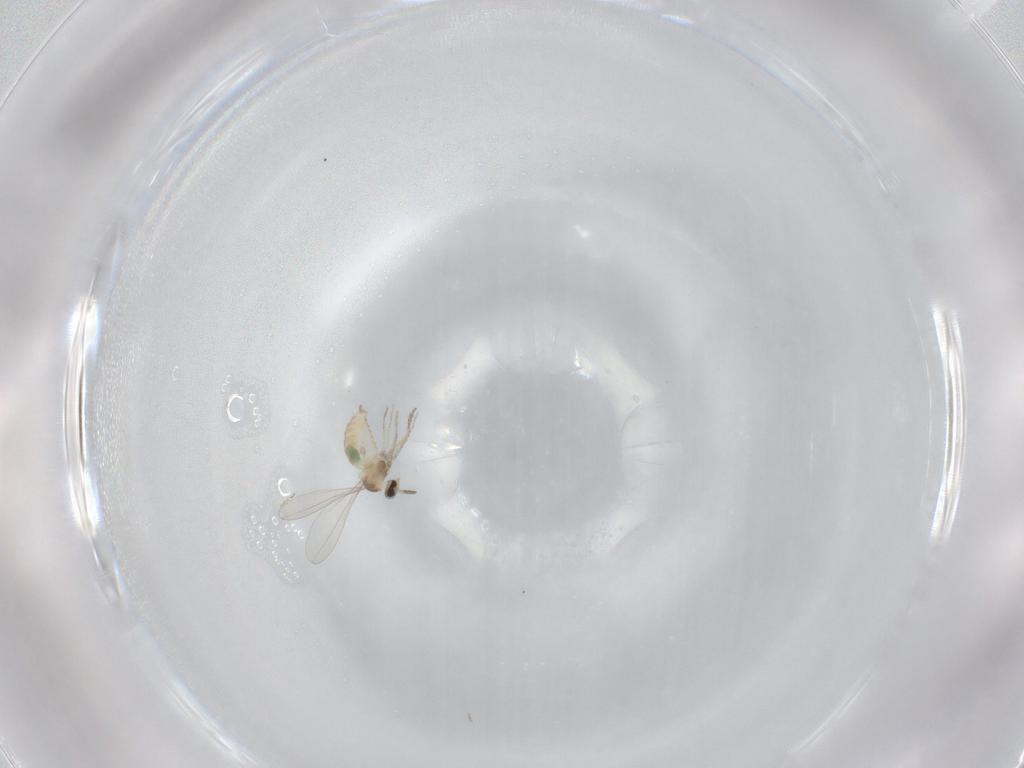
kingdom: Animalia
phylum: Arthropoda
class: Insecta
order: Diptera
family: Cecidomyiidae
